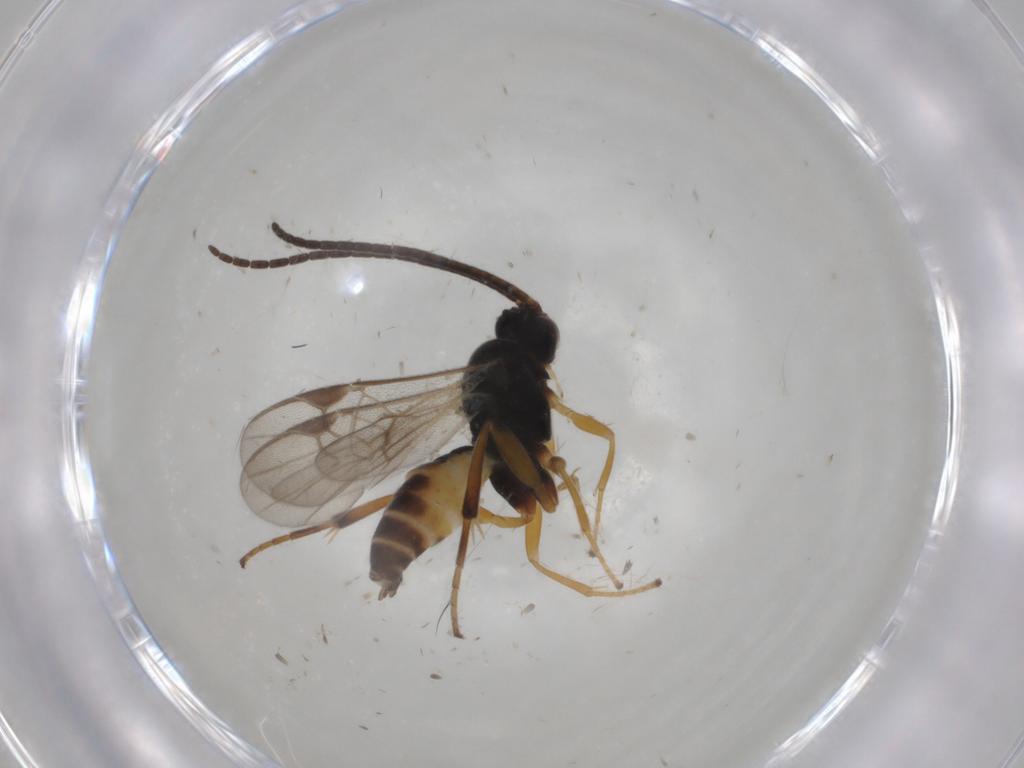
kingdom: Animalia
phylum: Arthropoda
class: Insecta
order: Hymenoptera
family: Braconidae
